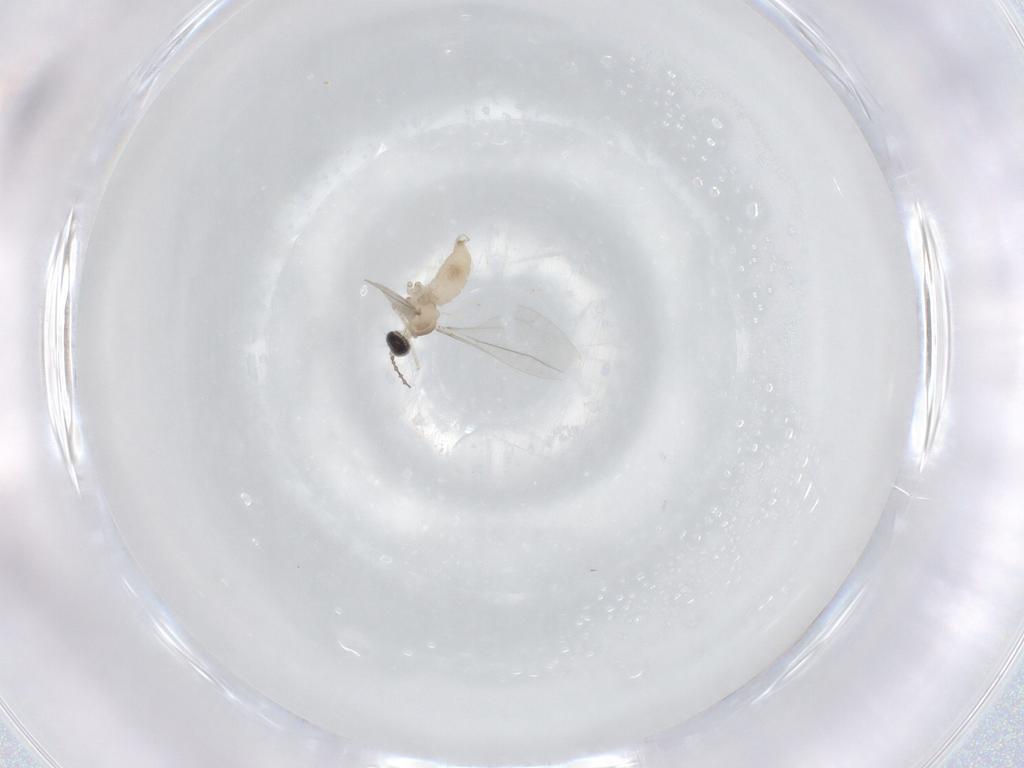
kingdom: Animalia
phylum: Arthropoda
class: Insecta
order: Diptera
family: Cecidomyiidae
